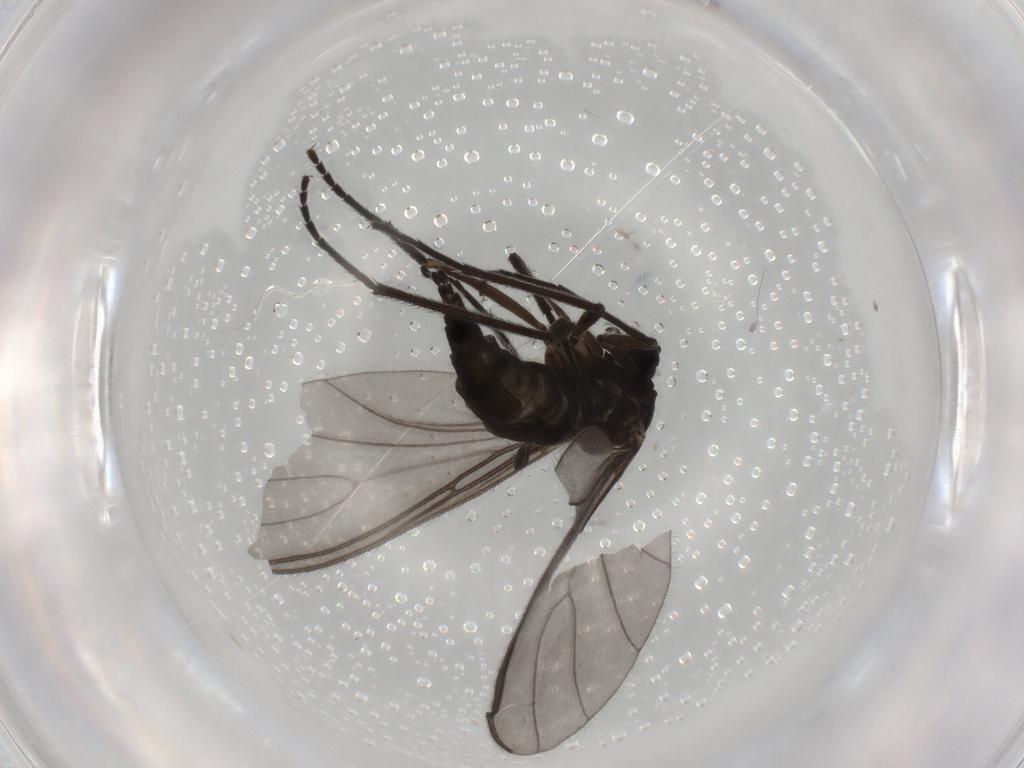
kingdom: Animalia
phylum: Arthropoda
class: Insecta
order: Diptera
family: Sciaridae
